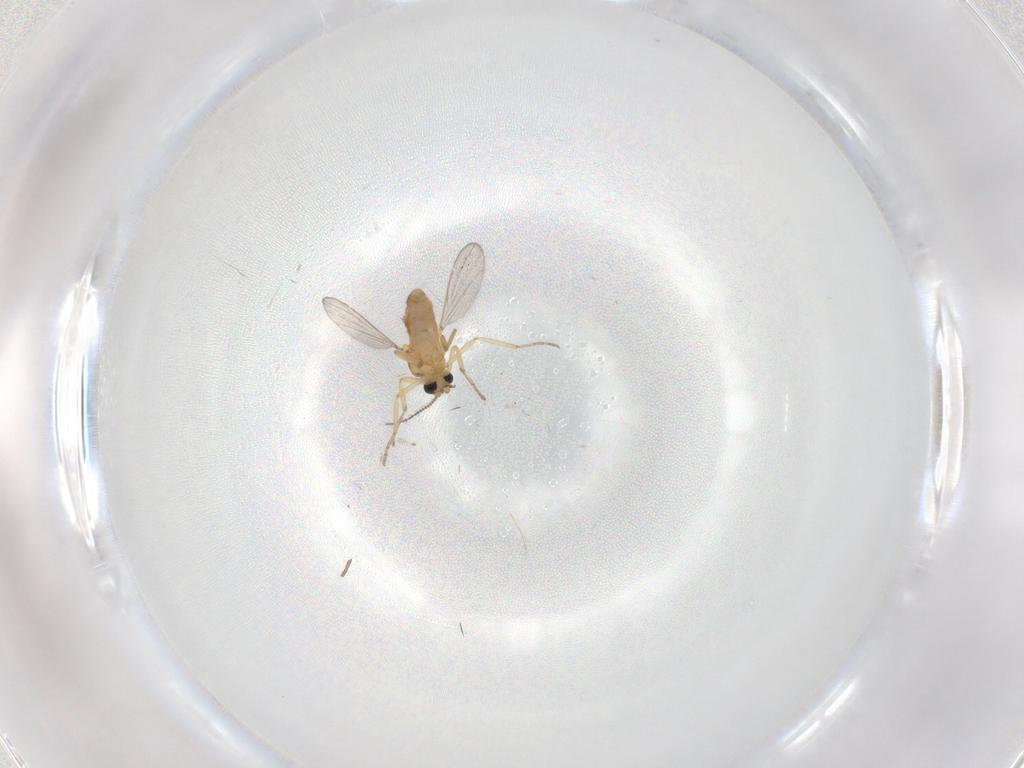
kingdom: Animalia
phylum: Arthropoda
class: Insecta
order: Diptera
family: Ceratopogonidae
